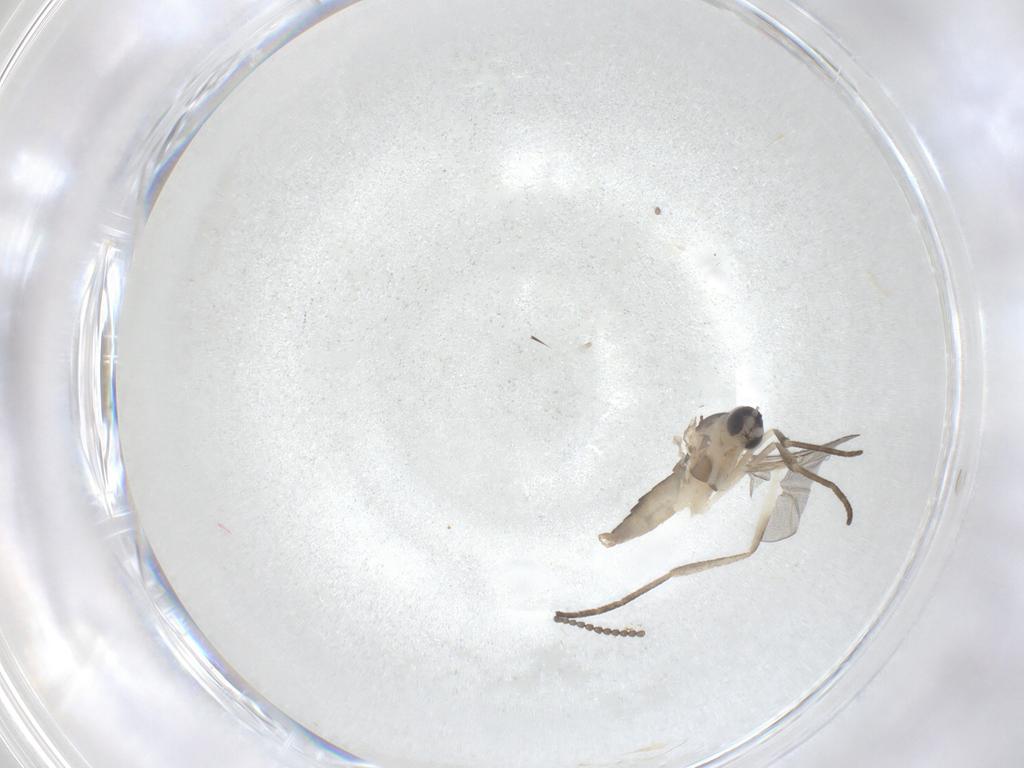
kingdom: Animalia
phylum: Arthropoda
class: Insecta
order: Diptera
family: Cecidomyiidae
